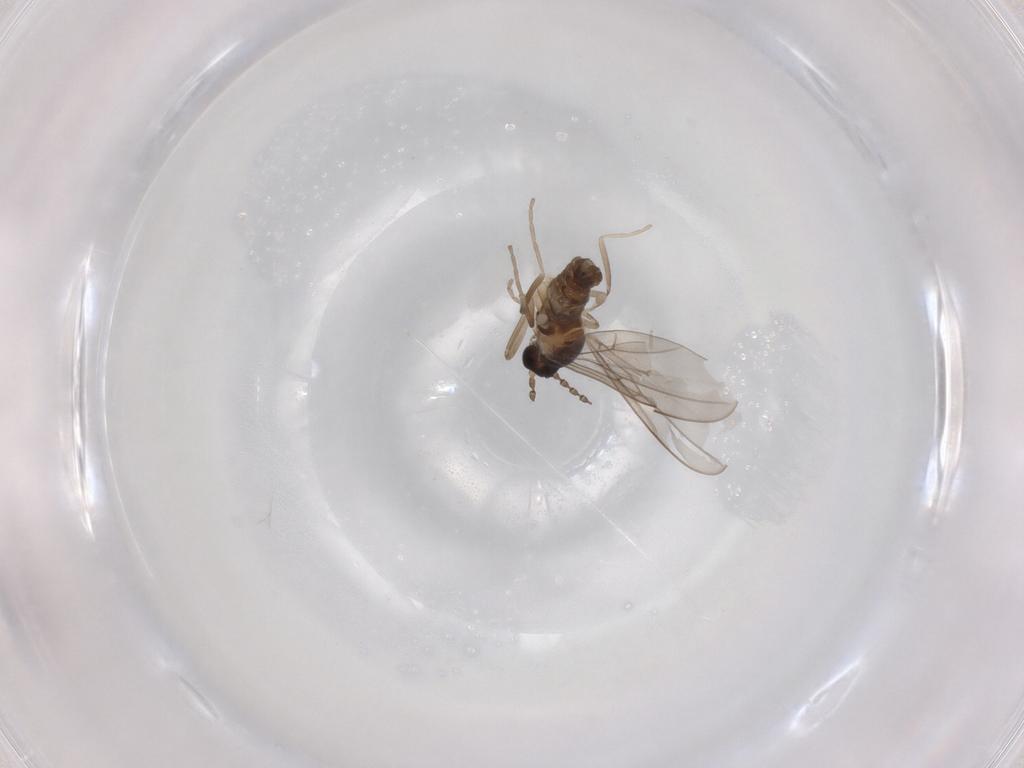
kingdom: Animalia
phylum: Arthropoda
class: Insecta
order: Diptera
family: Cecidomyiidae
